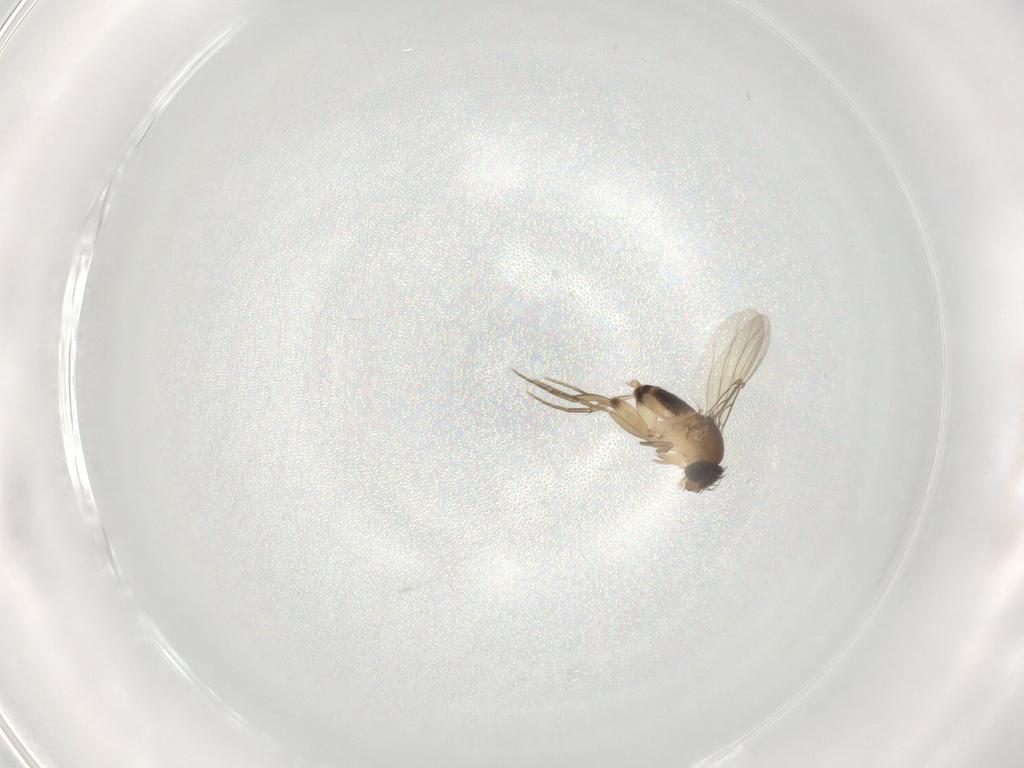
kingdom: Animalia
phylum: Arthropoda
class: Insecta
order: Diptera
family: Phoridae
